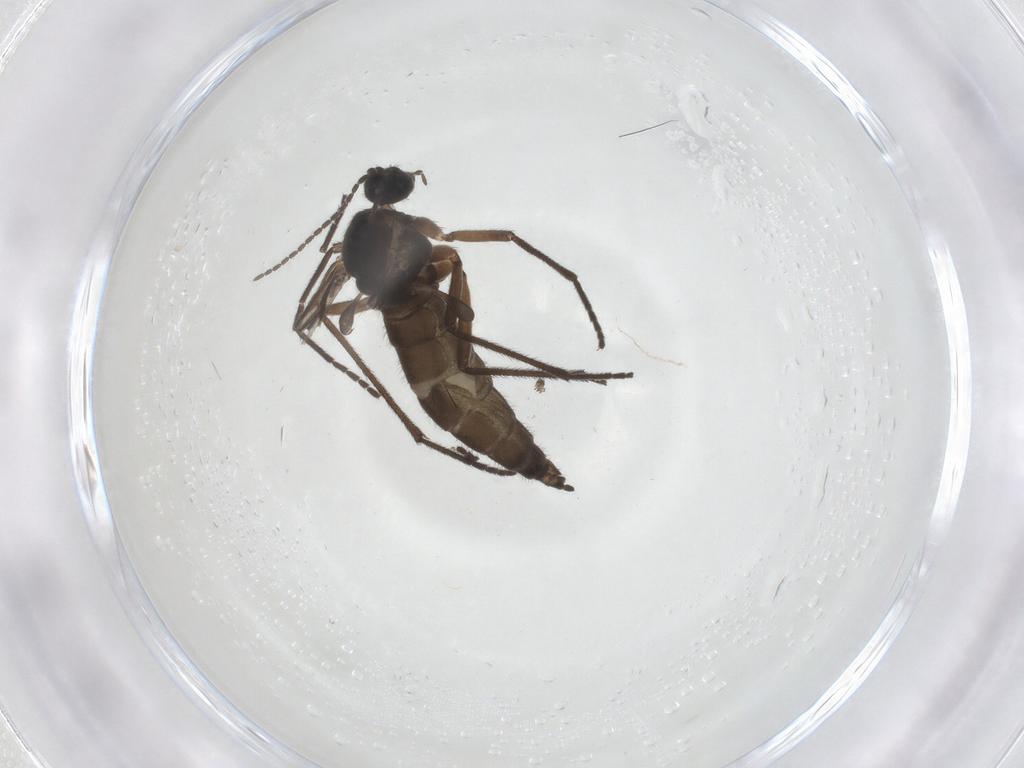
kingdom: Animalia
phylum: Arthropoda
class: Insecta
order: Diptera
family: Sciaridae
